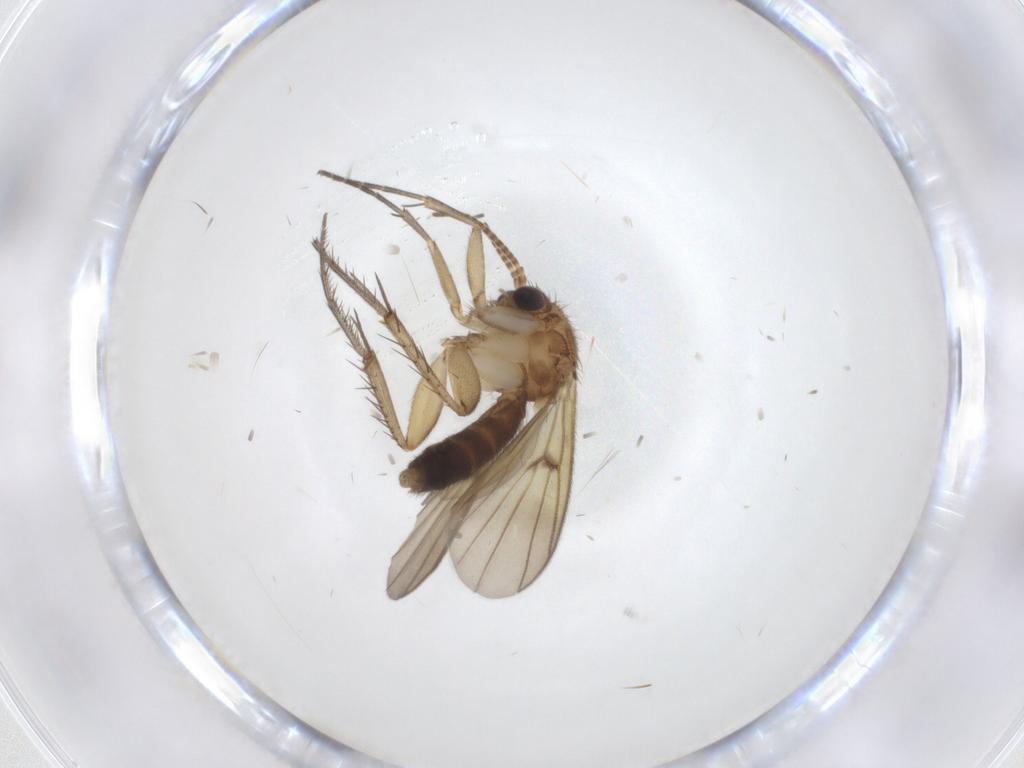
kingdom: Animalia
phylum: Arthropoda
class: Insecta
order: Diptera
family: Mycetophilidae
